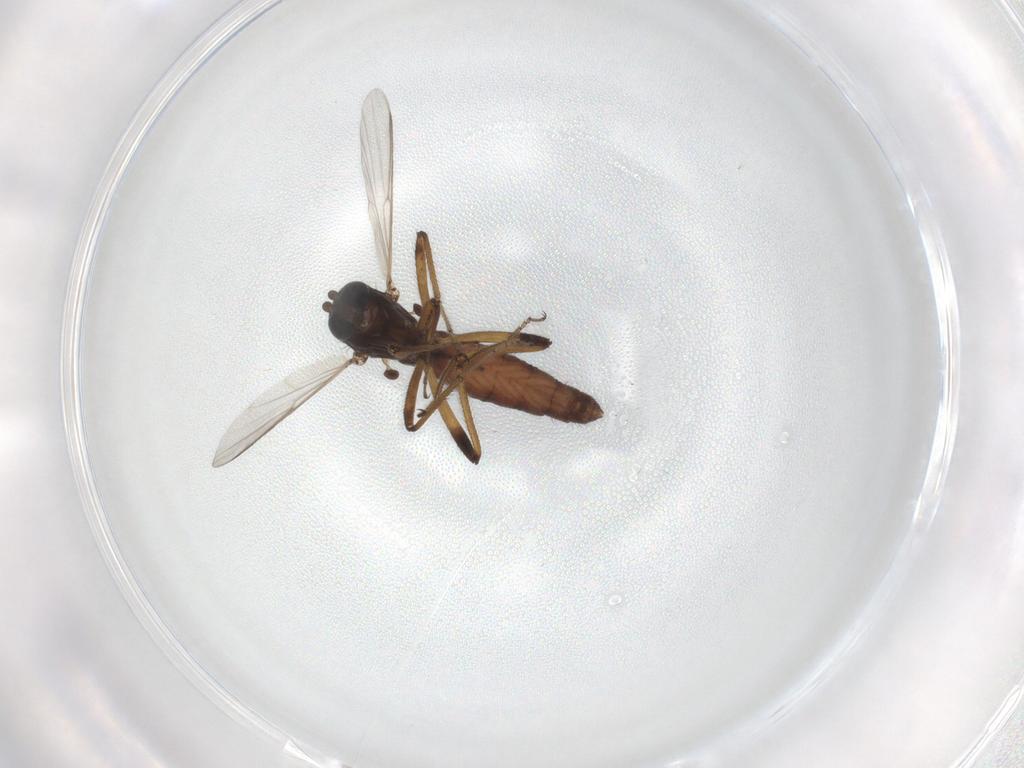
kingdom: Animalia
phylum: Arthropoda
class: Insecta
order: Diptera
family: Ceratopogonidae
